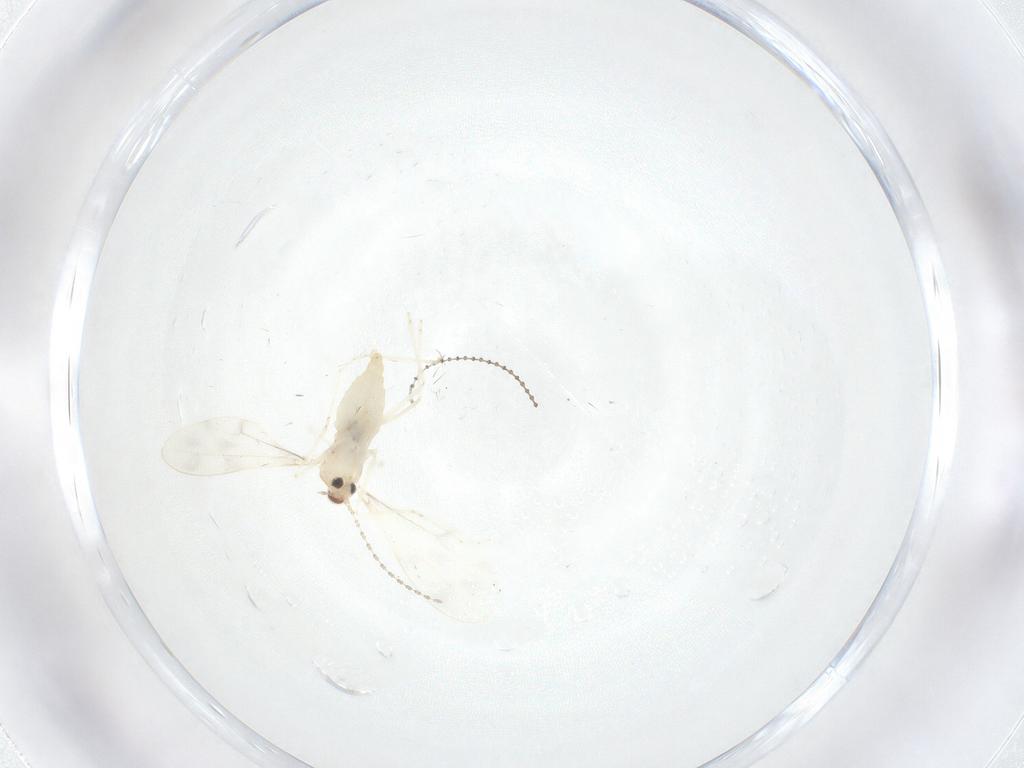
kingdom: Animalia
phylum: Arthropoda
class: Insecta
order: Diptera
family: Cecidomyiidae
